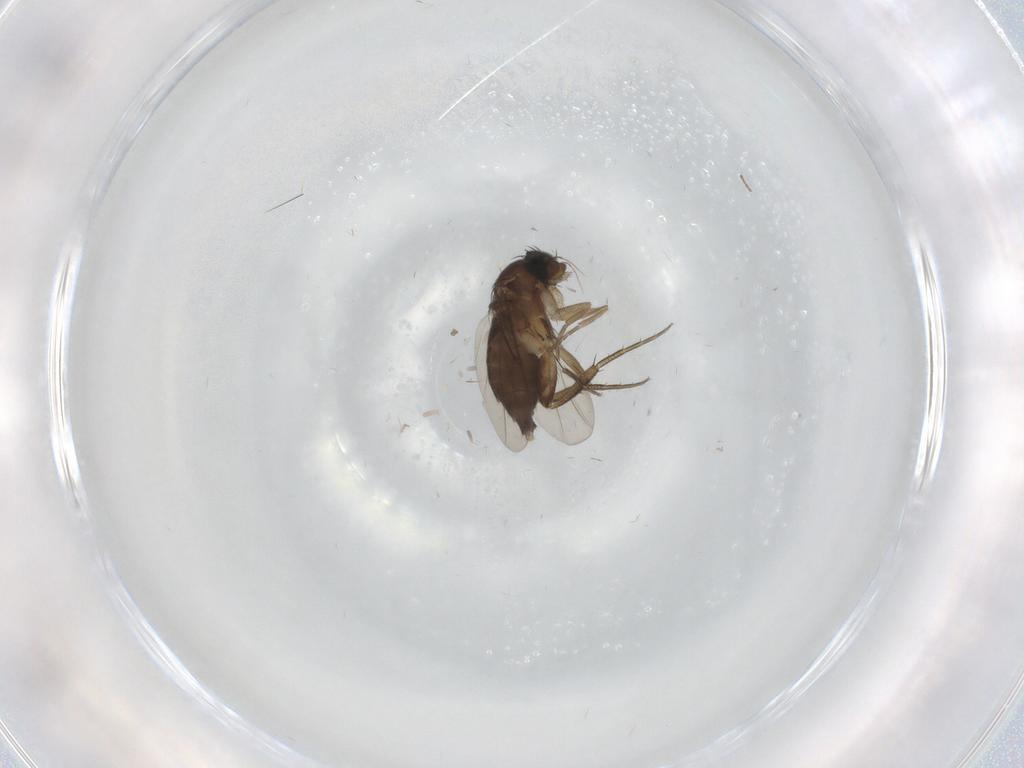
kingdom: Animalia
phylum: Arthropoda
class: Insecta
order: Diptera
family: Phoridae
